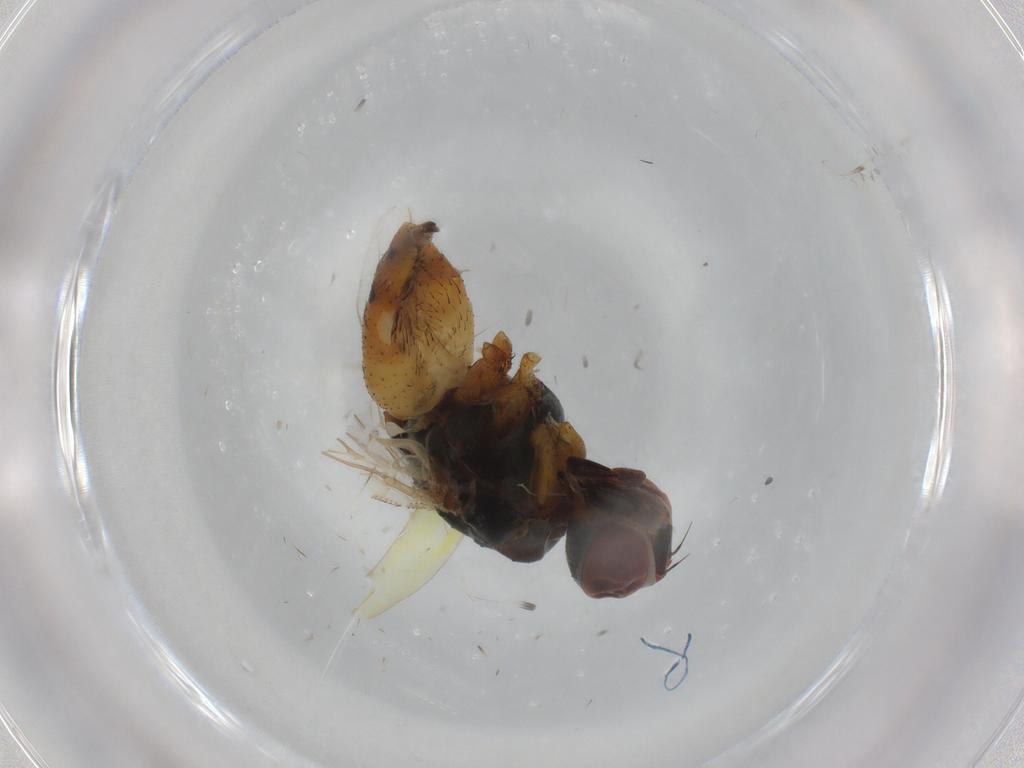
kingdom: Animalia
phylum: Arthropoda
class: Insecta
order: Diptera
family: Muscidae
